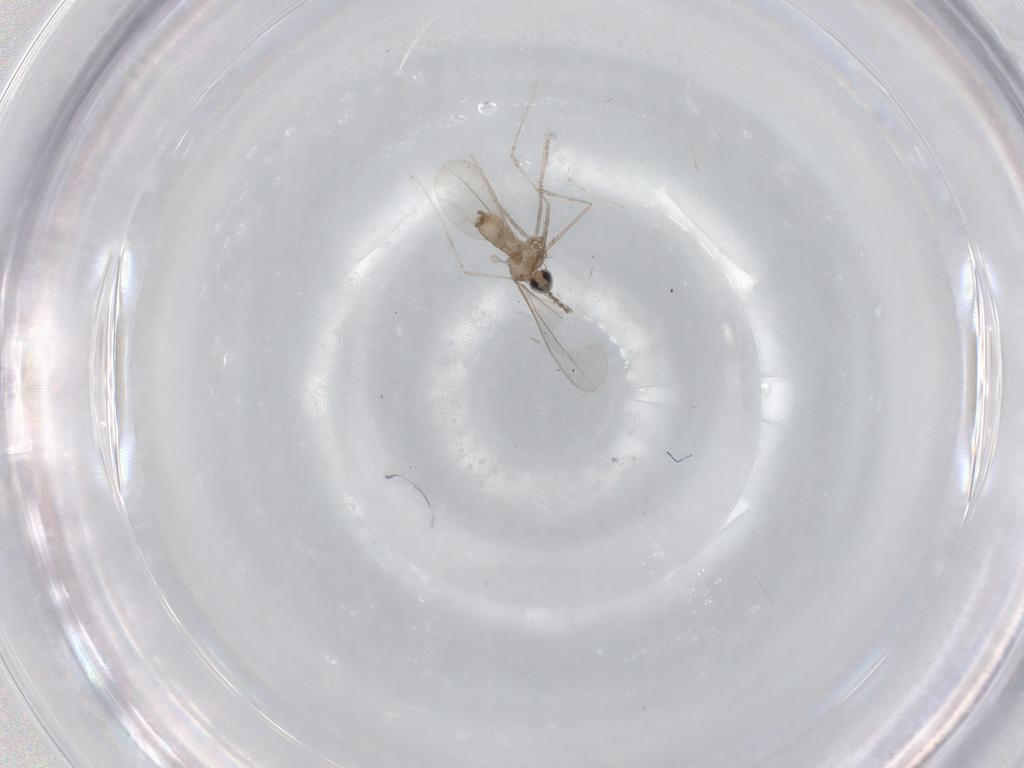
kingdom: Animalia
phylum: Arthropoda
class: Insecta
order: Diptera
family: Cecidomyiidae
